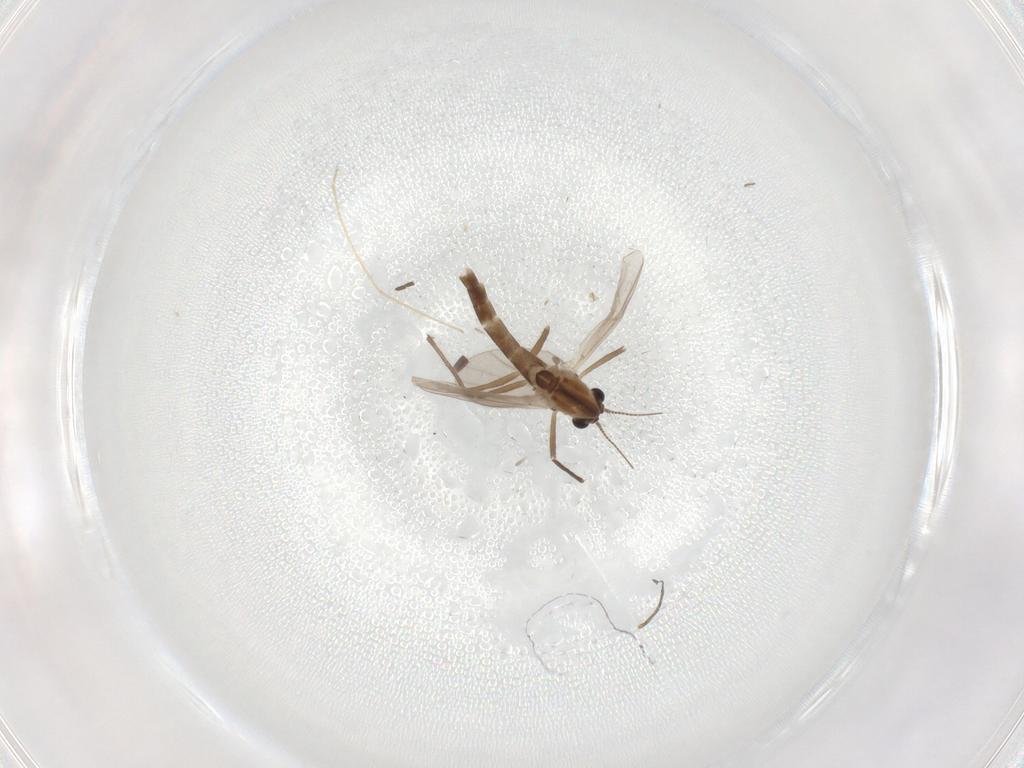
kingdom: Animalia
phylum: Arthropoda
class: Insecta
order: Diptera
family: Chironomidae
